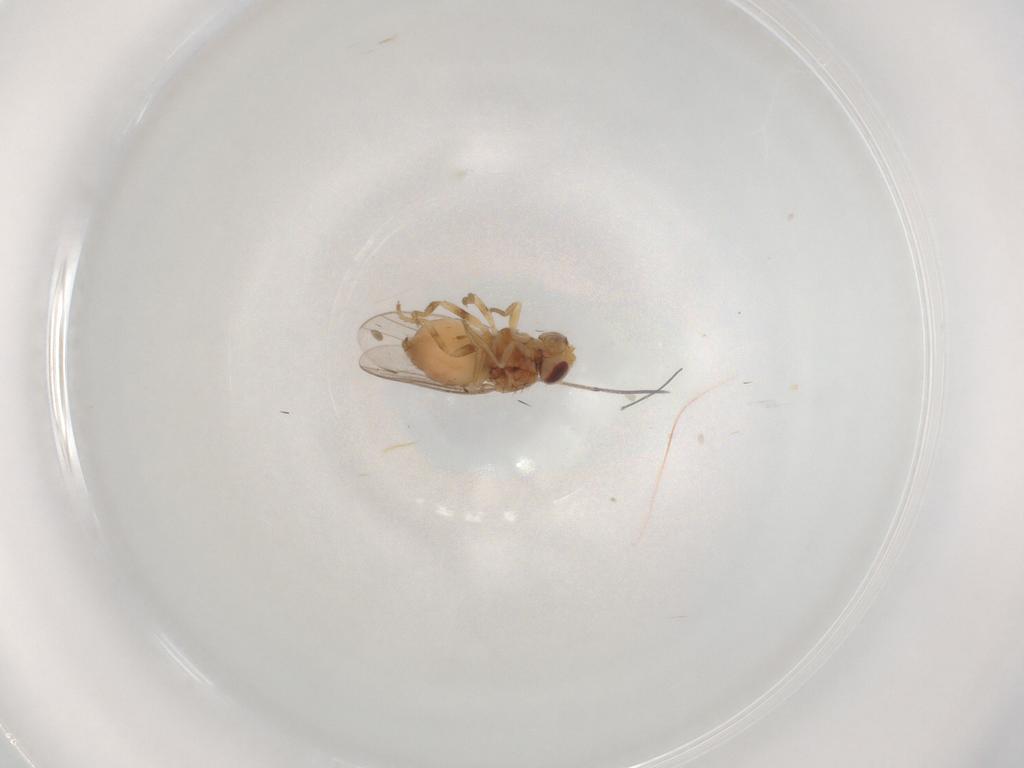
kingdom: Animalia
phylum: Arthropoda
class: Insecta
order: Diptera
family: Chloropidae
